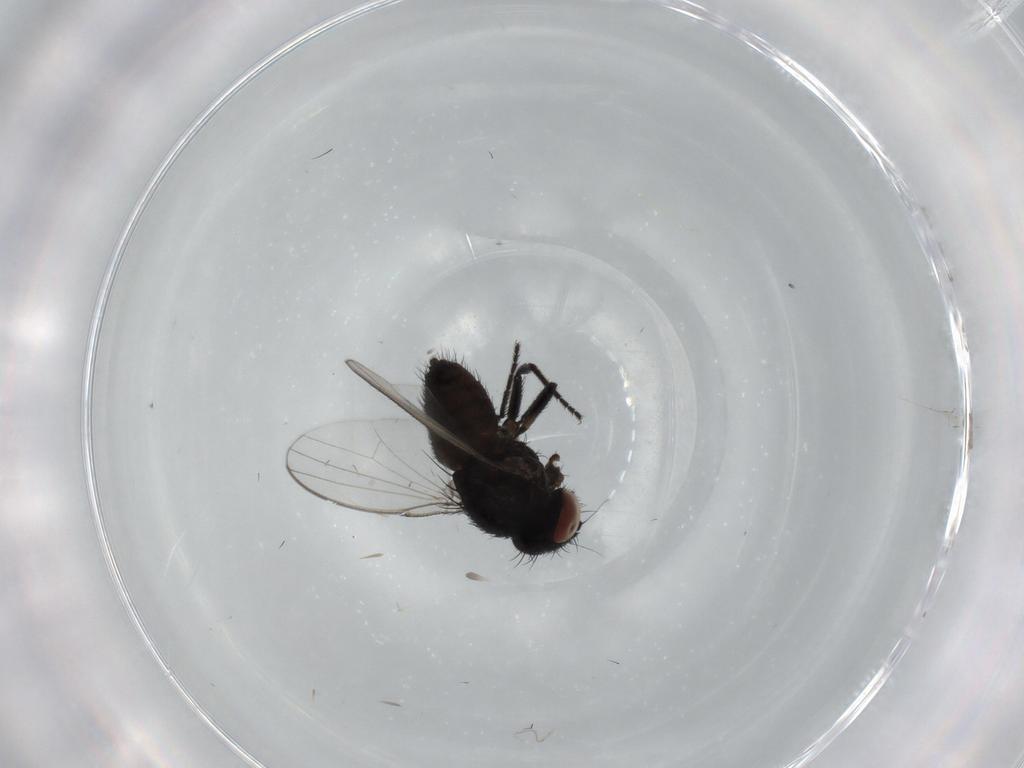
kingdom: Animalia
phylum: Arthropoda
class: Insecta
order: Diptera
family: Milichiidae
